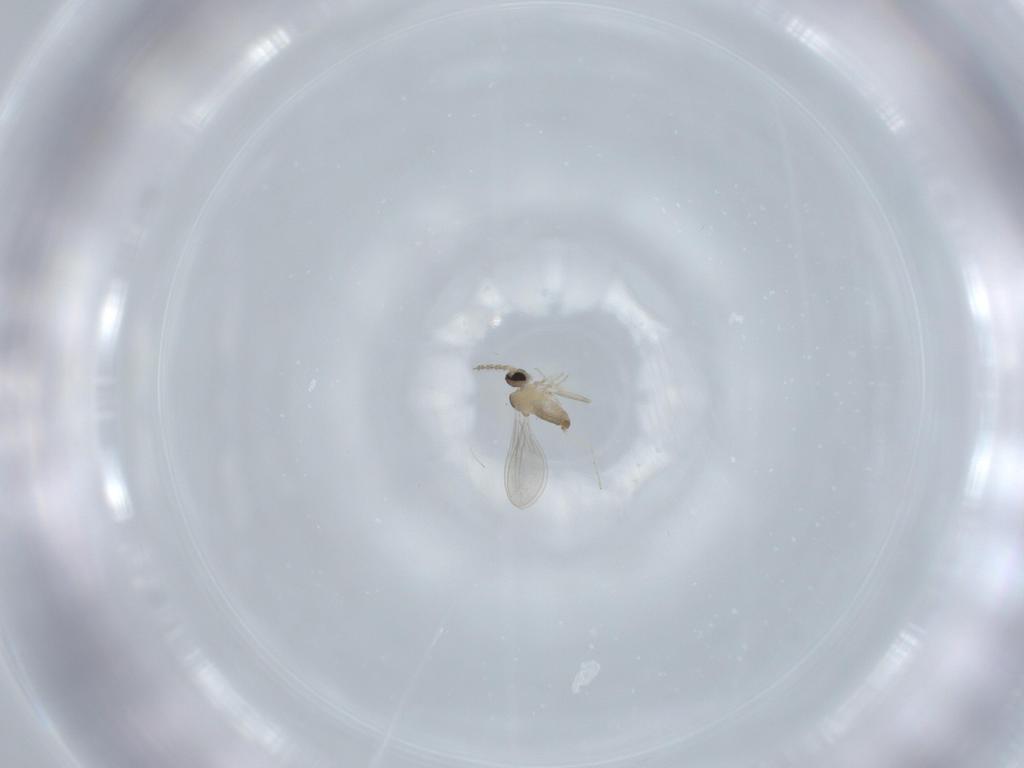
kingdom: Animalia
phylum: Arthropoda
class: Insecta
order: Diptera
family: Cecidomyiidae
